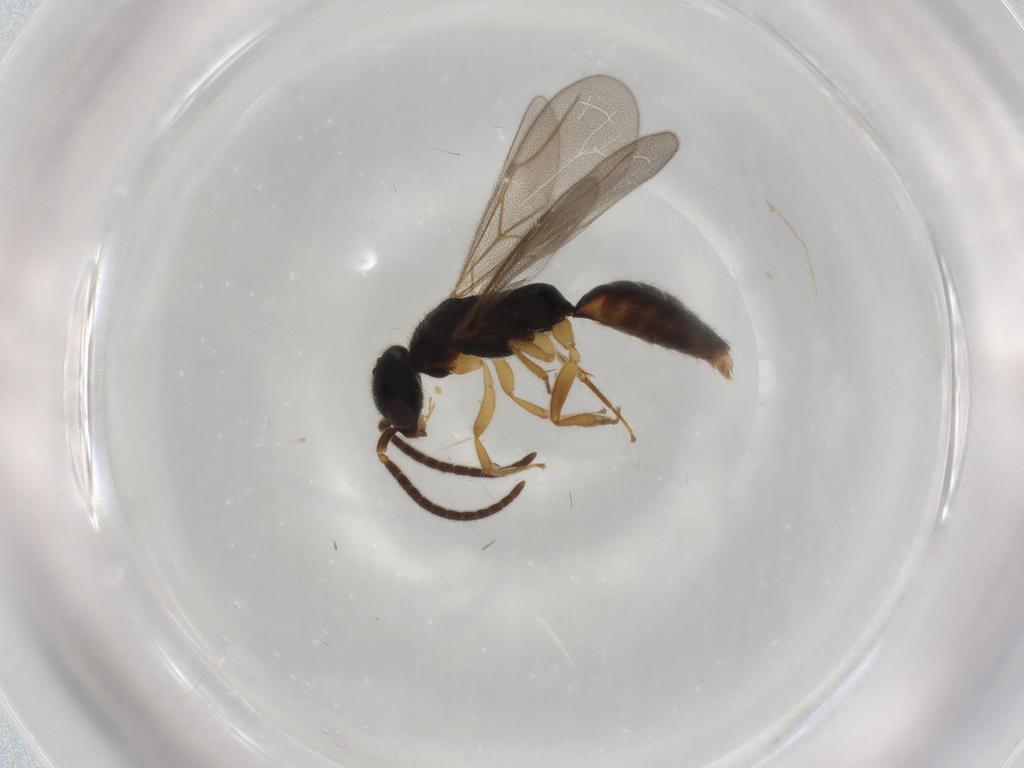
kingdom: Animalia
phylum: Arthropoda
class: Insecta
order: Hymenoptera
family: Bethylidae
